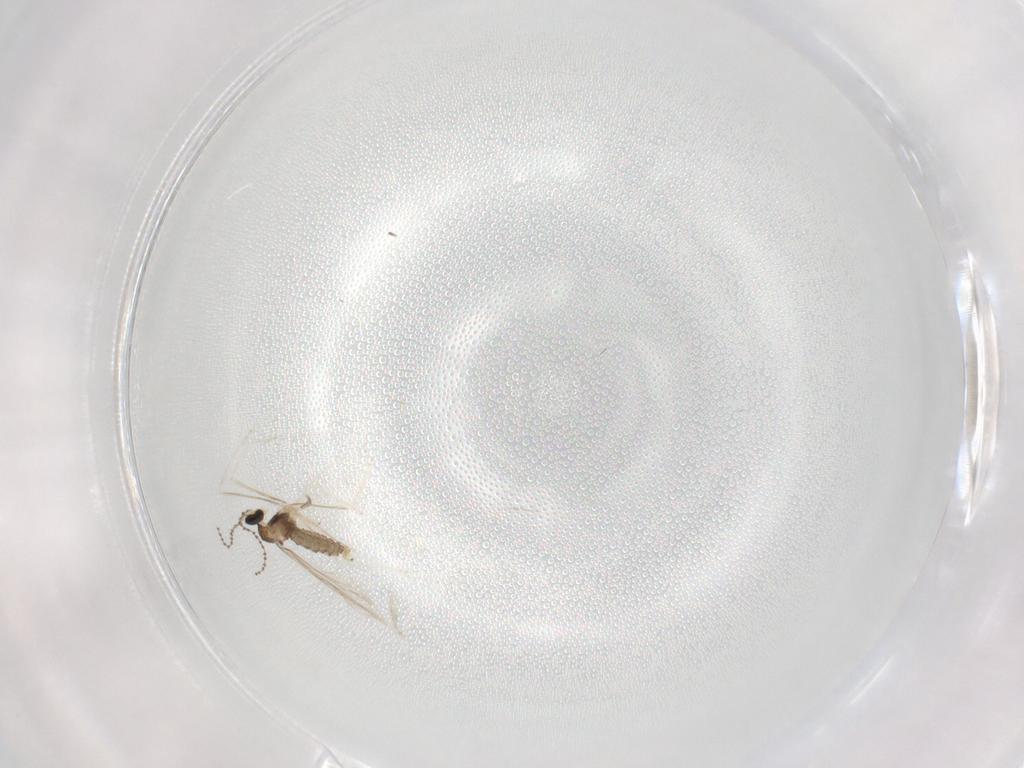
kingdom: Animalia
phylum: Arthropoda
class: Insecta
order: Diptera
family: Cecidomyiidae
